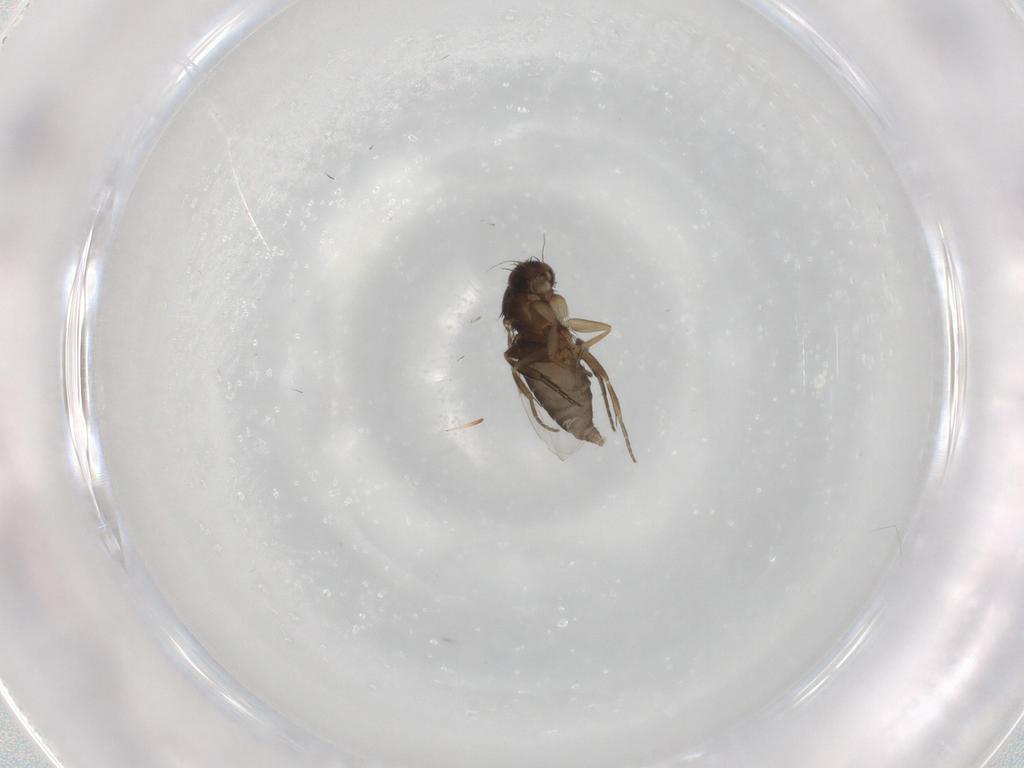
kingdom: Animalia
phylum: Arthropoda
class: Insecta
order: Diptera
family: Phoridae
